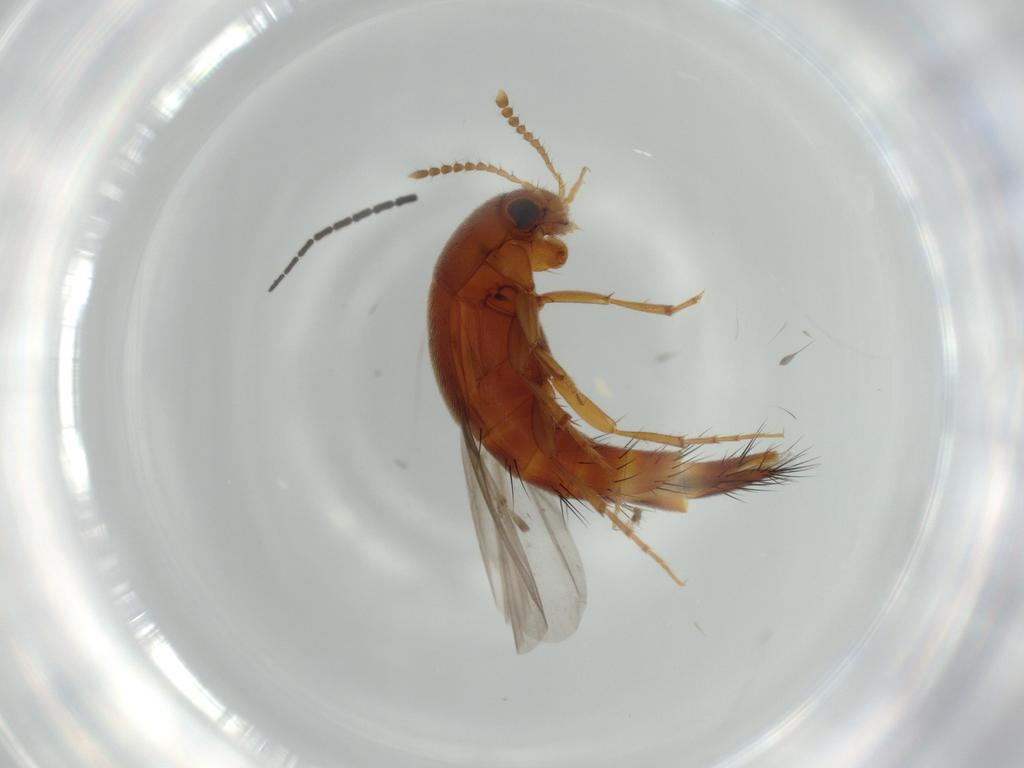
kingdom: Animalia
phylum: Arthropoda
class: Insecta
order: Coleoptera
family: Staphylinidae
